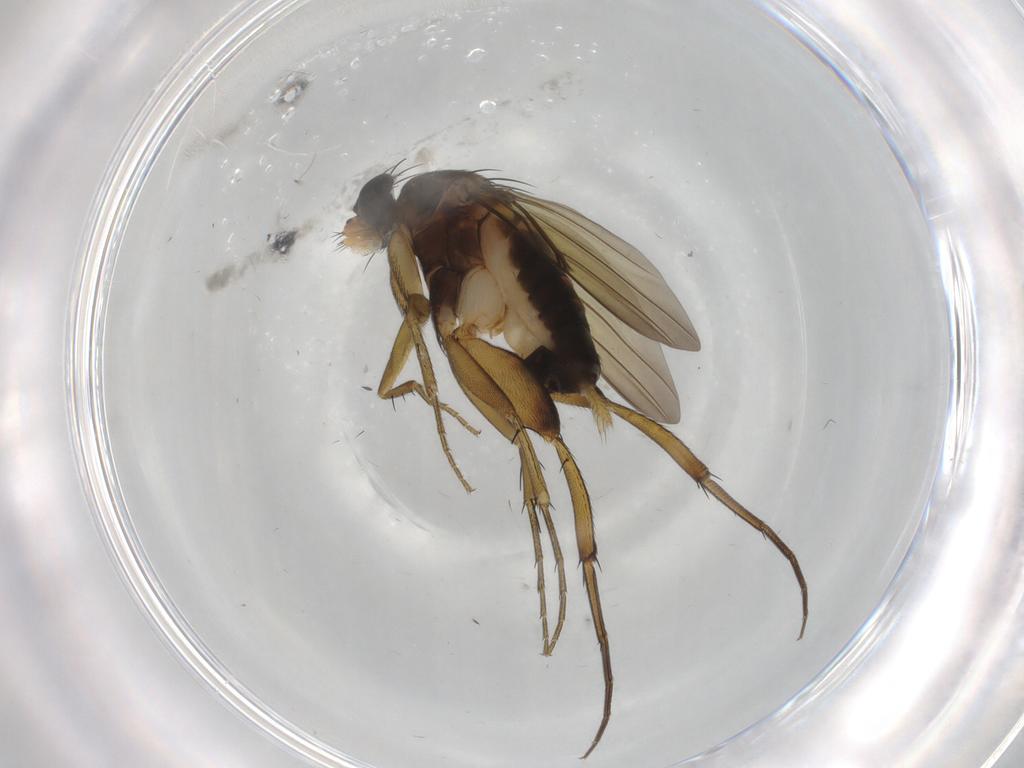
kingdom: Animalia
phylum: Arthropoda
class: Insecta
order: Diptera
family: Phoridae
